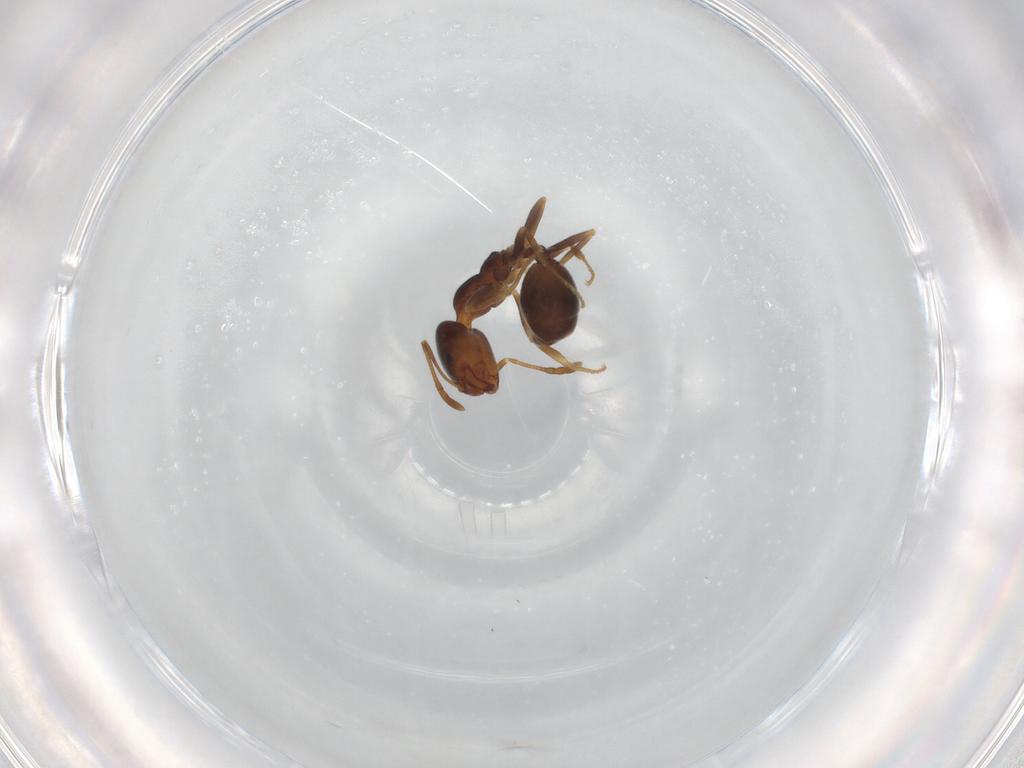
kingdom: Animalia
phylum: Arthropoda
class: Insecta
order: Hymenoptera
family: Formicidae
